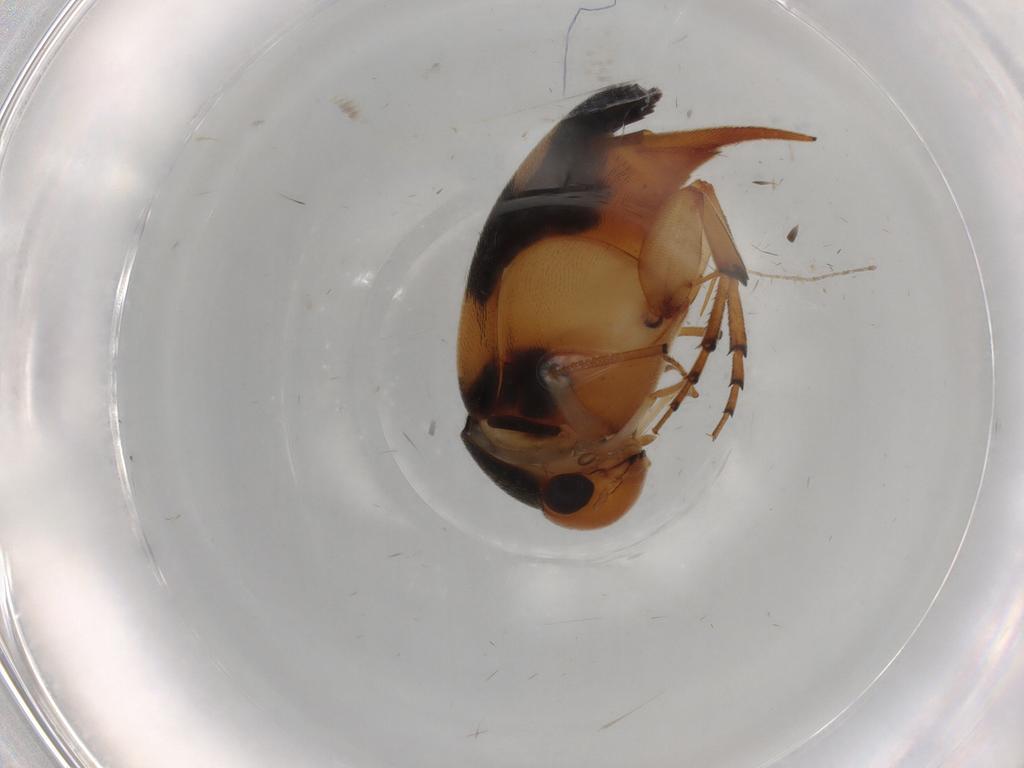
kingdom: Animalia
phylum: Arthropoda
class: Insecta
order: Coleoptera
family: Mordellidae
